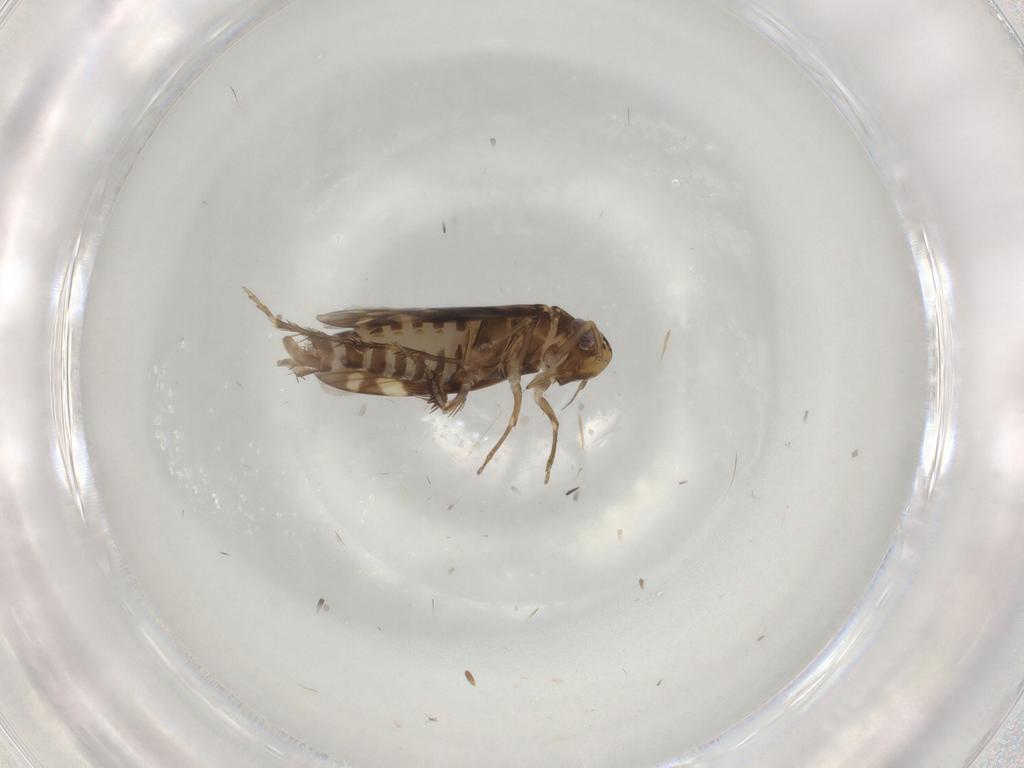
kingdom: Animalia
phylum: Arthropoda
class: Insecta
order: Hemiptera
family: Cicadellidae
